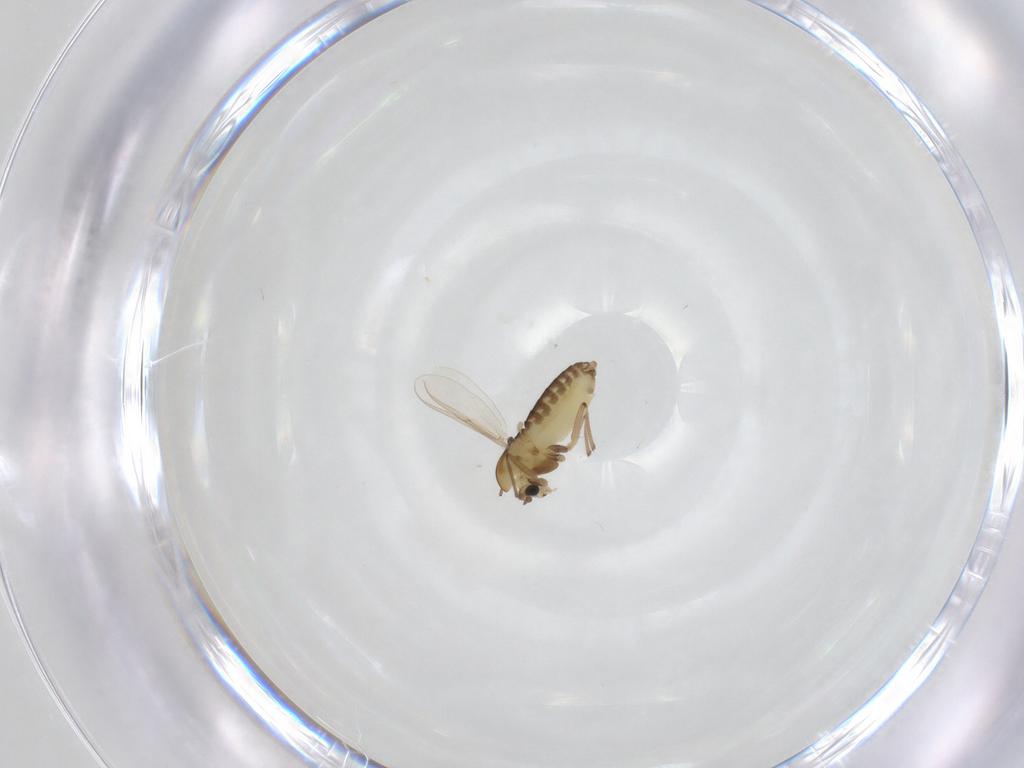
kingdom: Animalia
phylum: Arthropoda
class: Insecta
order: Diptera
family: Chironomidae
